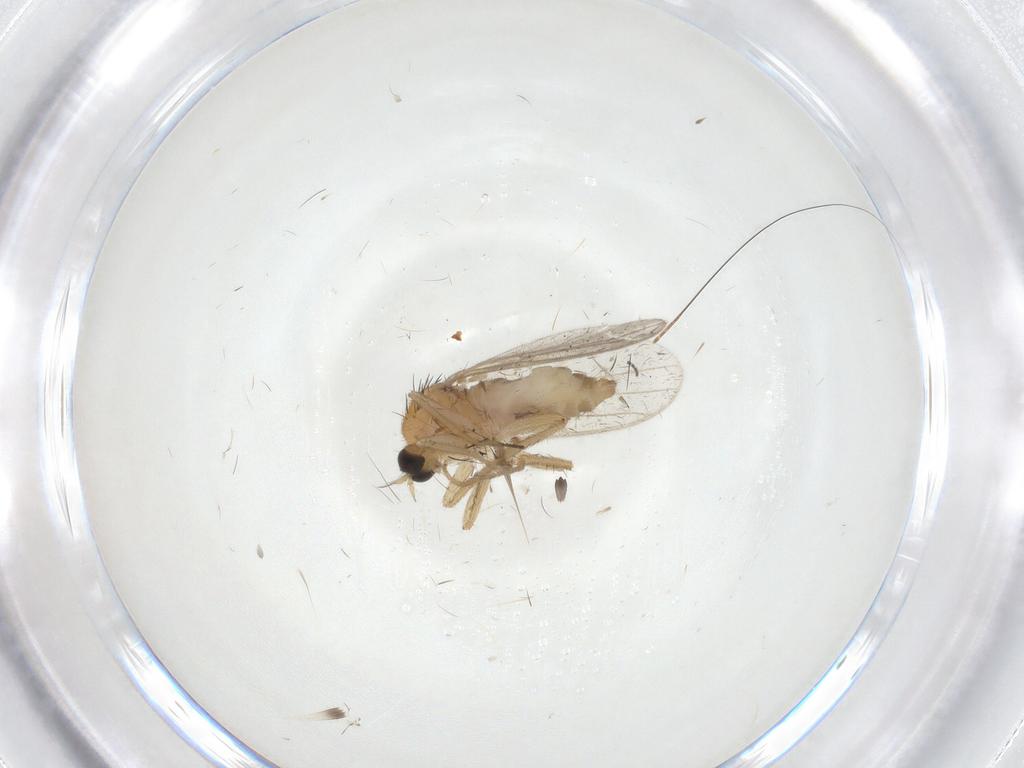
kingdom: Animalia
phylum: Arthropoda
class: Insecta
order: Diptera
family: Hybotidae
